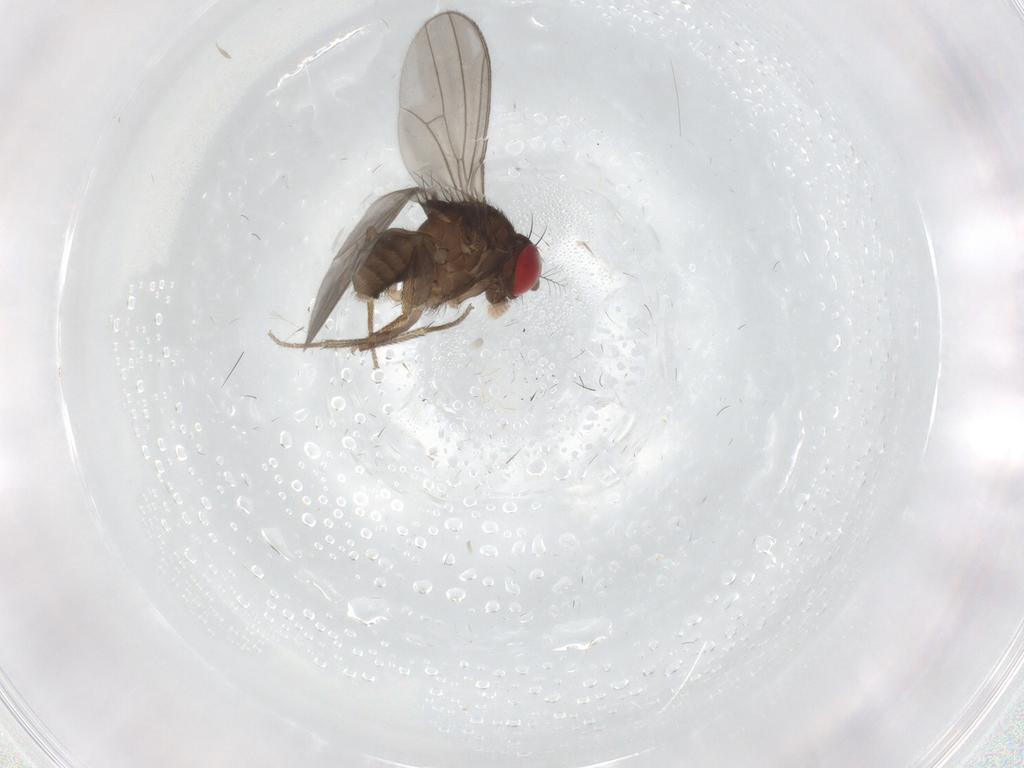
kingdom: Animalia
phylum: Arthropoda
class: Insecta
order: Diptera
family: Drosophilidae
